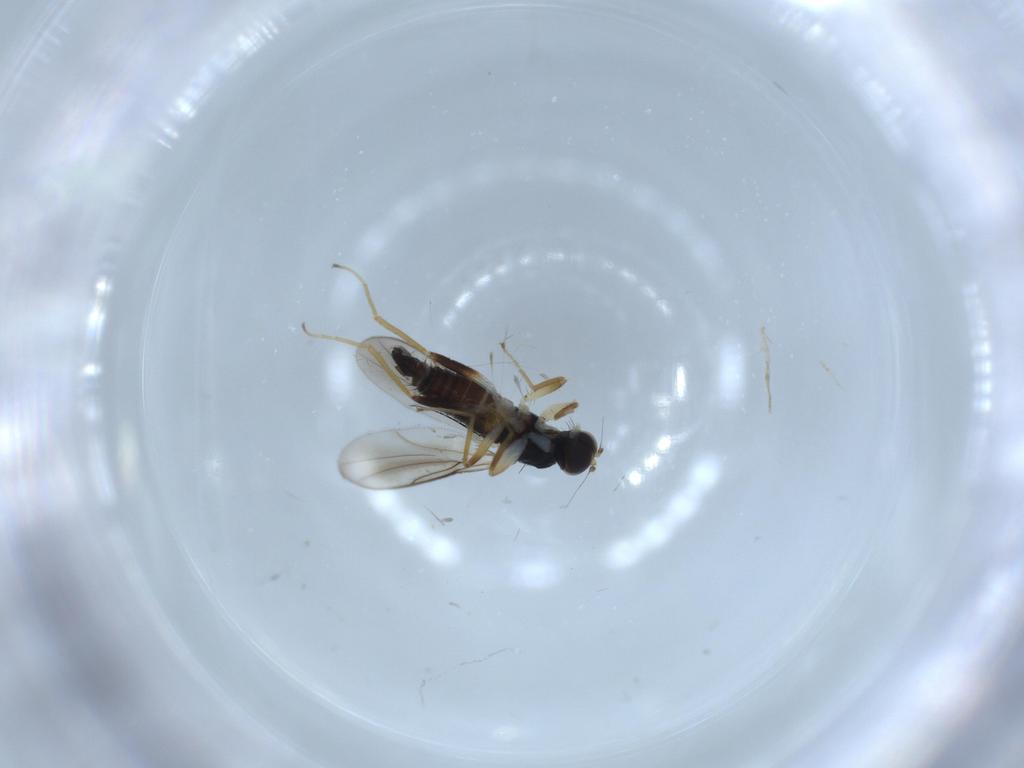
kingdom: Animalia
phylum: Arthropoda
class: Insecta
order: Diptera
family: Hybotidae
